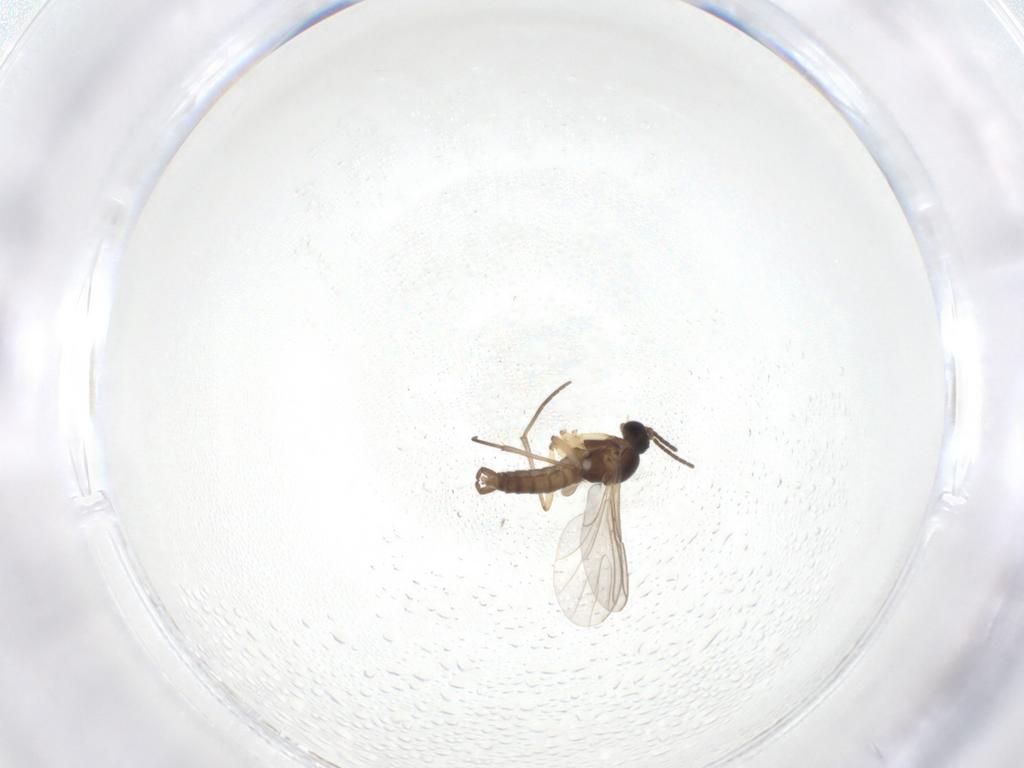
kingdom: Animalia
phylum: Arthropoda
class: Insecta
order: Diptera
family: Sciaridae
